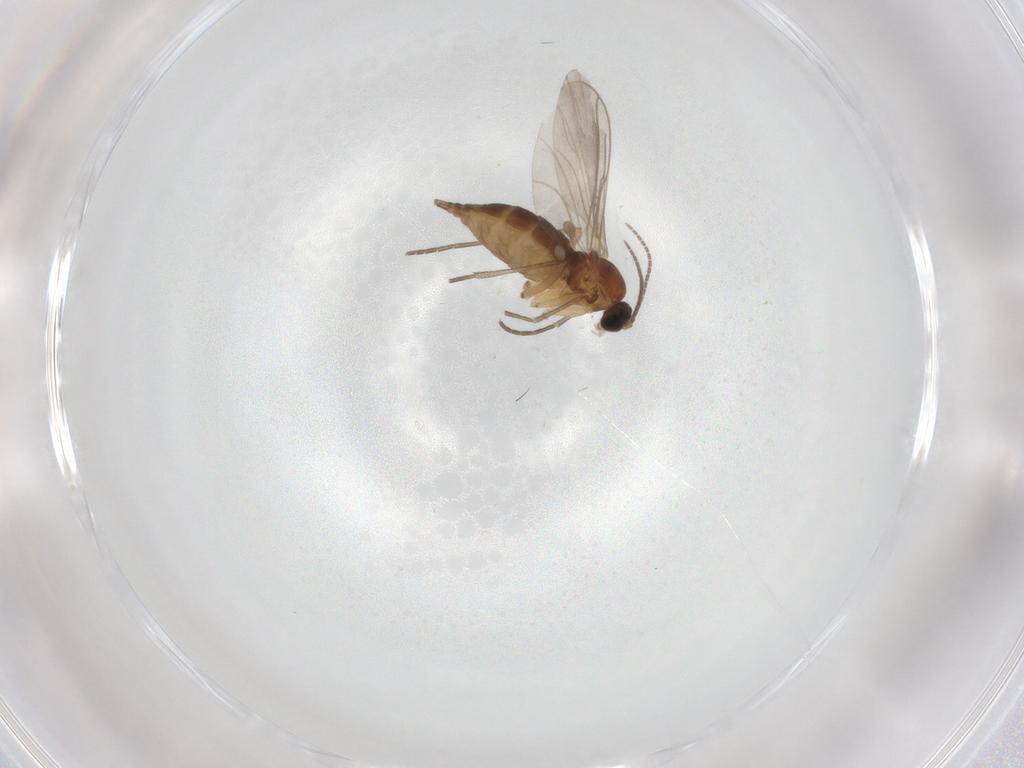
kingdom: Animalia
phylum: Arthropoda
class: Insecta
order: Diptera
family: Sciaridae
